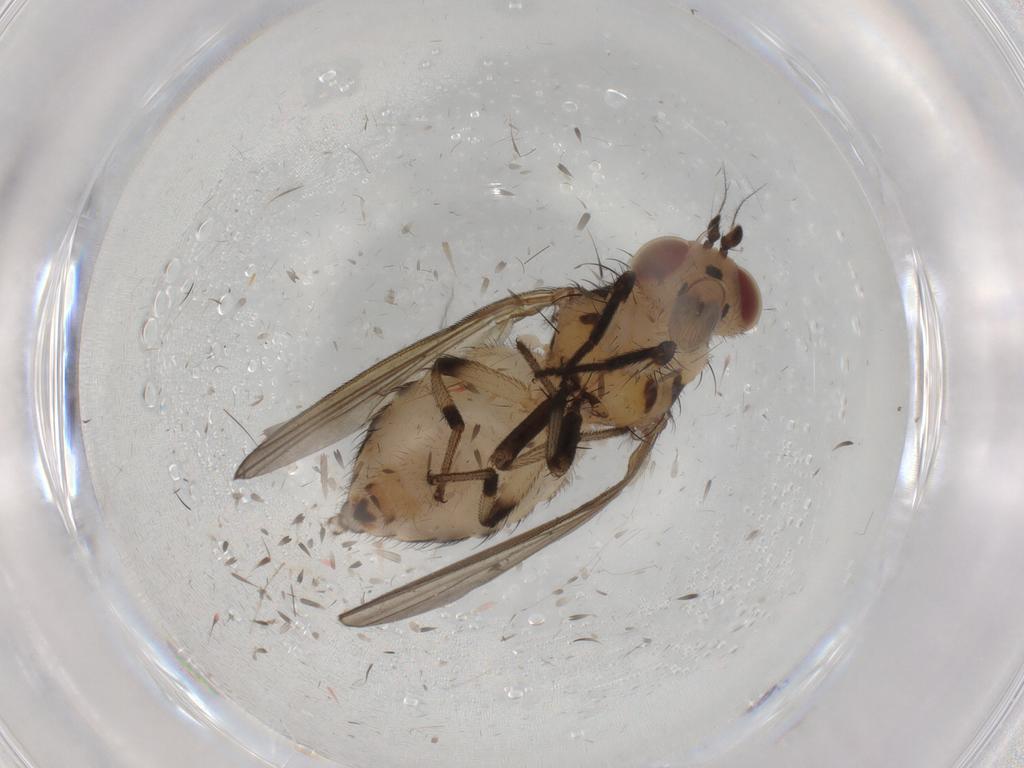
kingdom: Animalia
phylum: Arthropoda
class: Insecta
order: Diptera
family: Lauxaniidae
